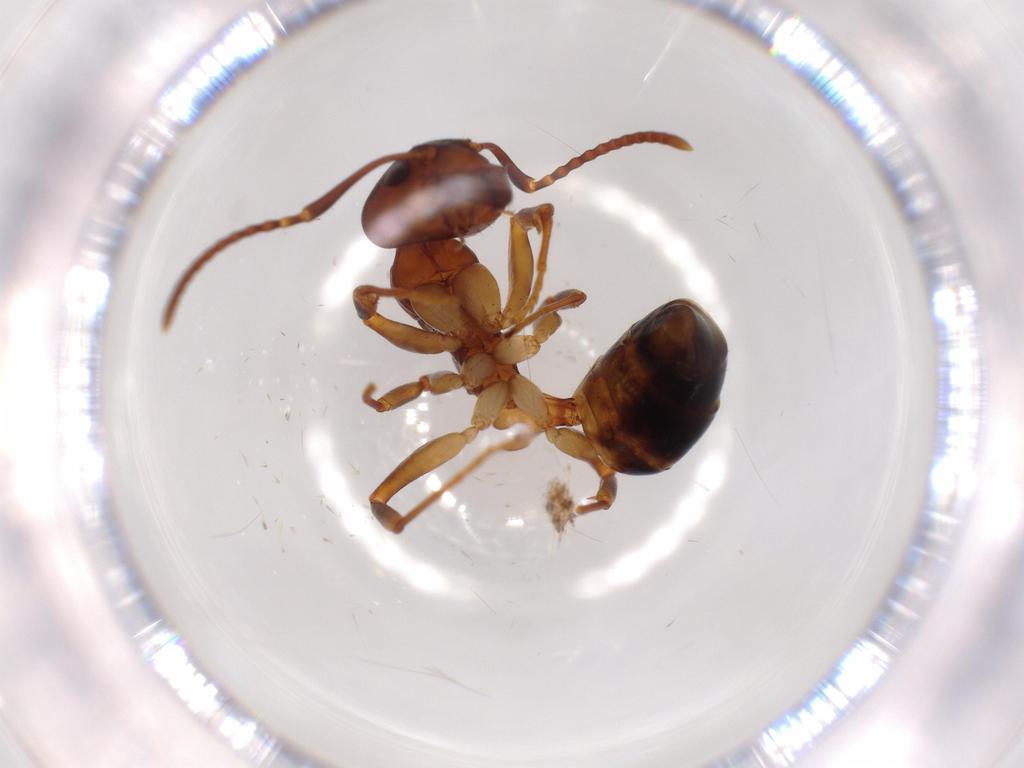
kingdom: Animalia
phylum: Arthropoda
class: Insecta
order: Hymenoptera
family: Formicidae
